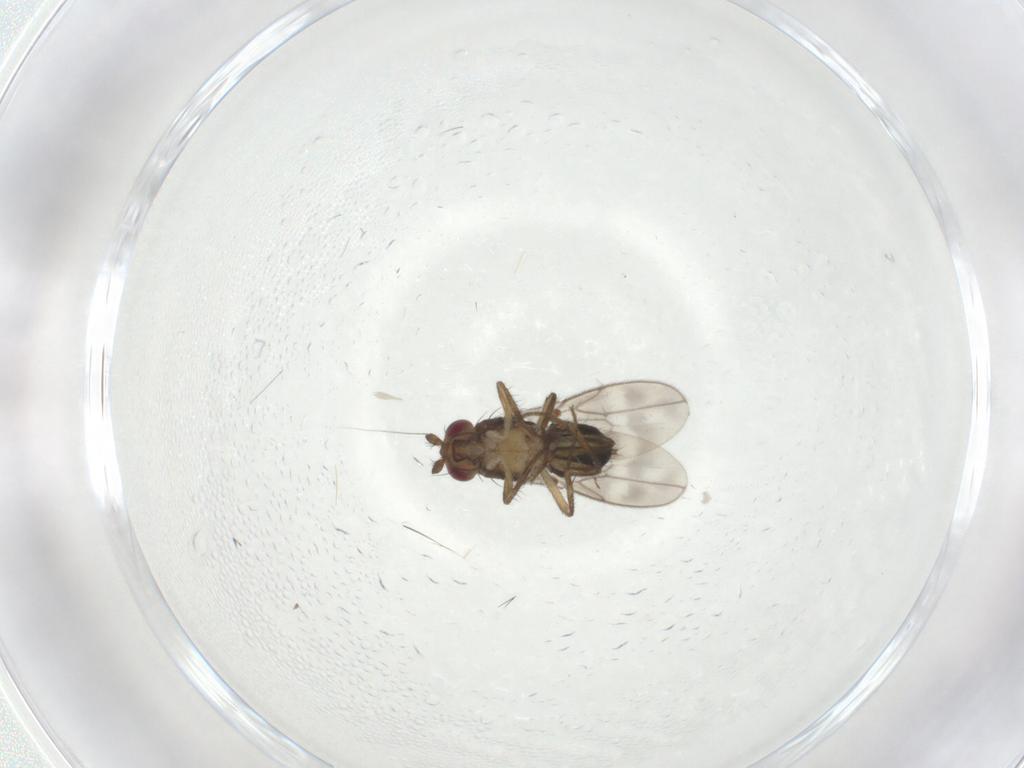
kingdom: Animalia
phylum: Arthropoda
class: Insecta
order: Diptera
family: Sphaeroceridae
